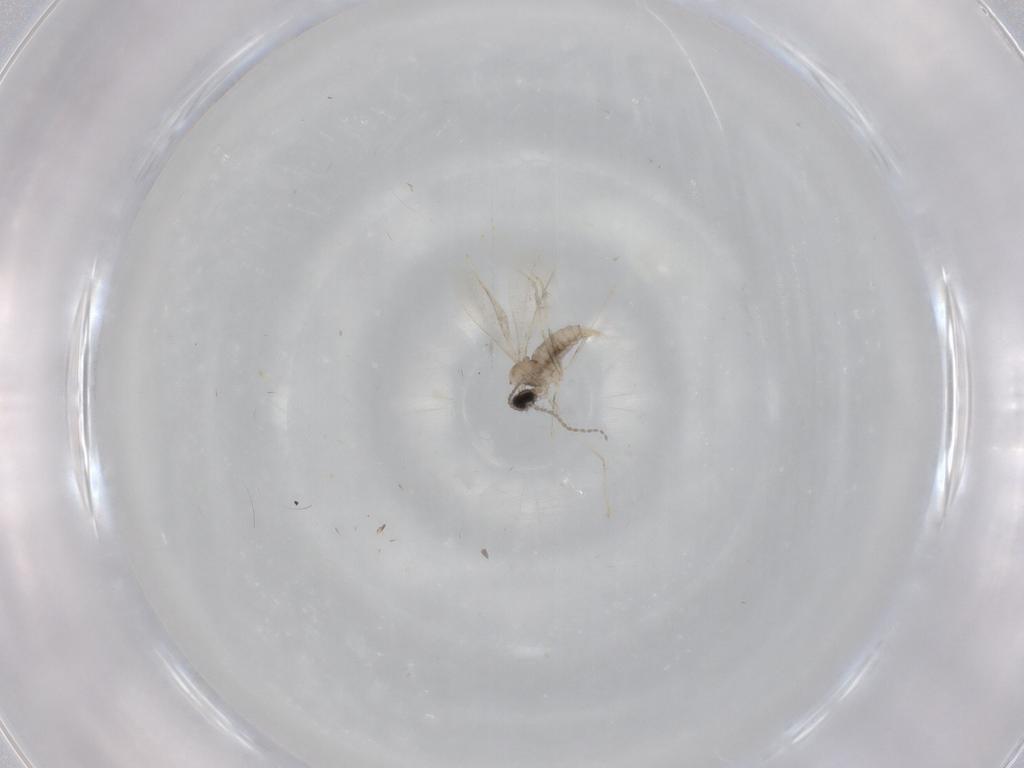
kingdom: Animalia
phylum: Arthropoda
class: Insecta
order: Diptera
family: Cecidomyiidae
